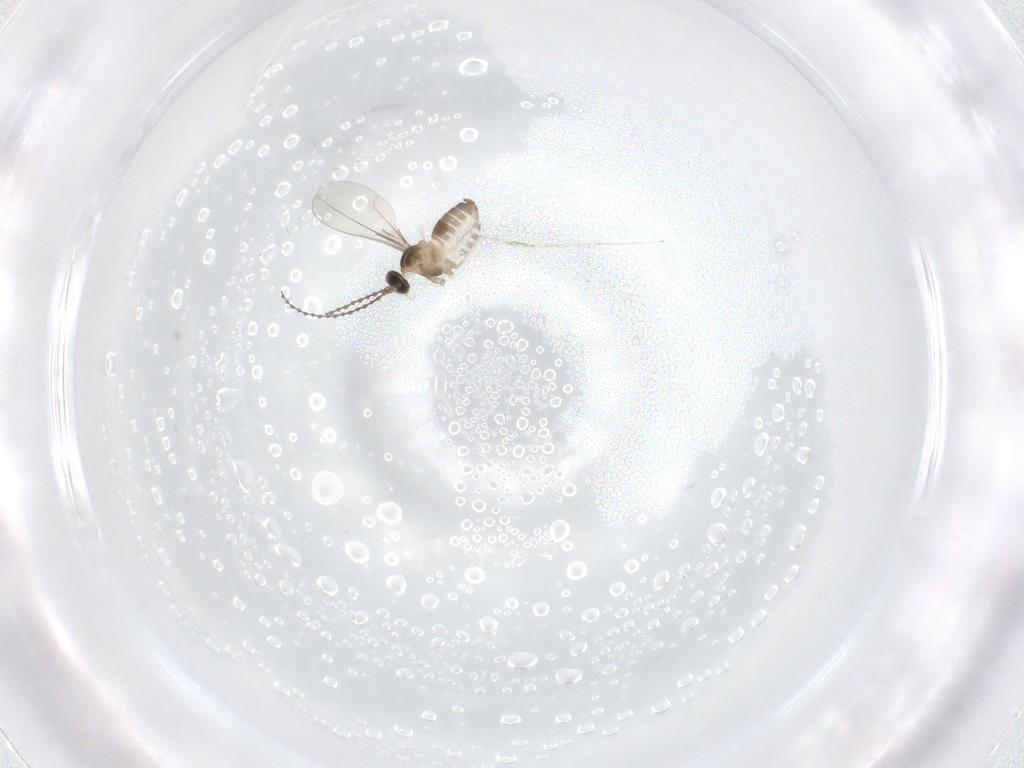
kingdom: Animalia
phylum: Arthropoda
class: Insecta
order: Diptera
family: Cecidomyiidae
